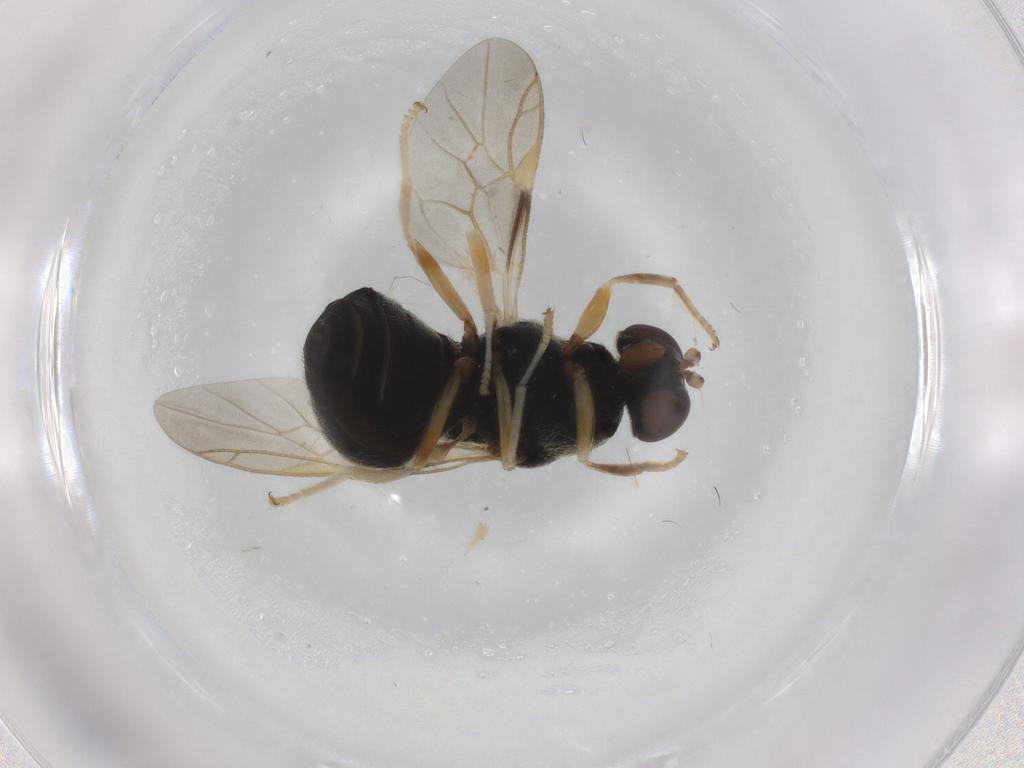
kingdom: Animalia
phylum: Arthropoda
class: Insecta
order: Diptera
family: Stratiomyidae
